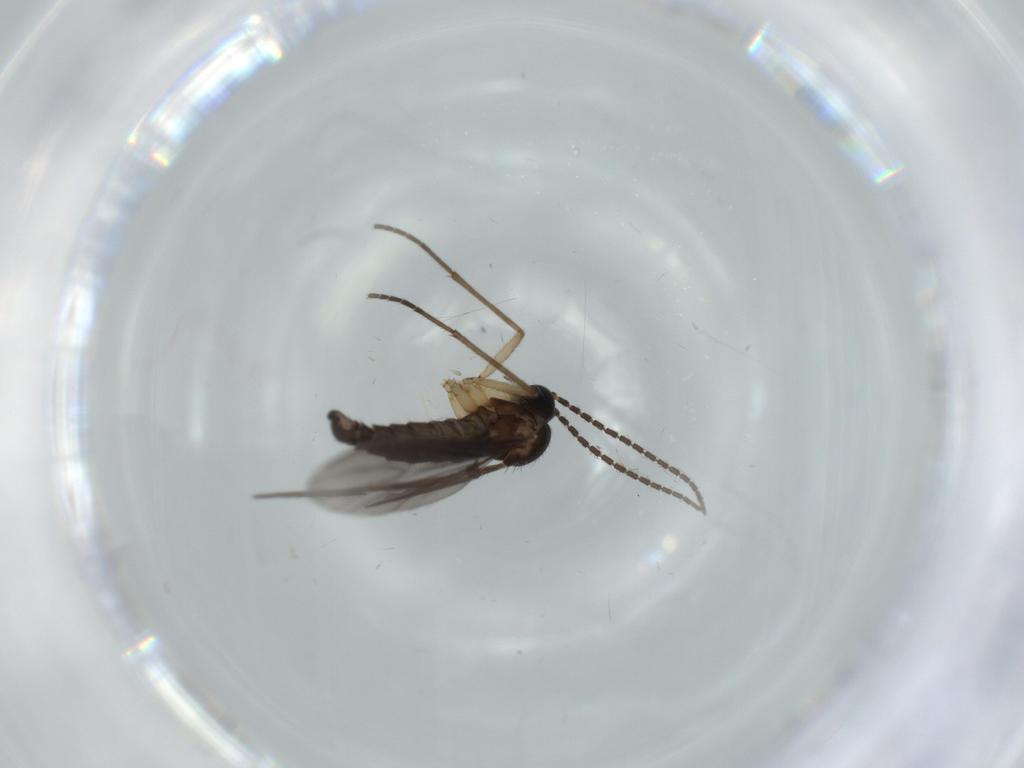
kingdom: Animalia
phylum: Arthropoda
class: Insecta
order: Diptera
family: Sciaridae
